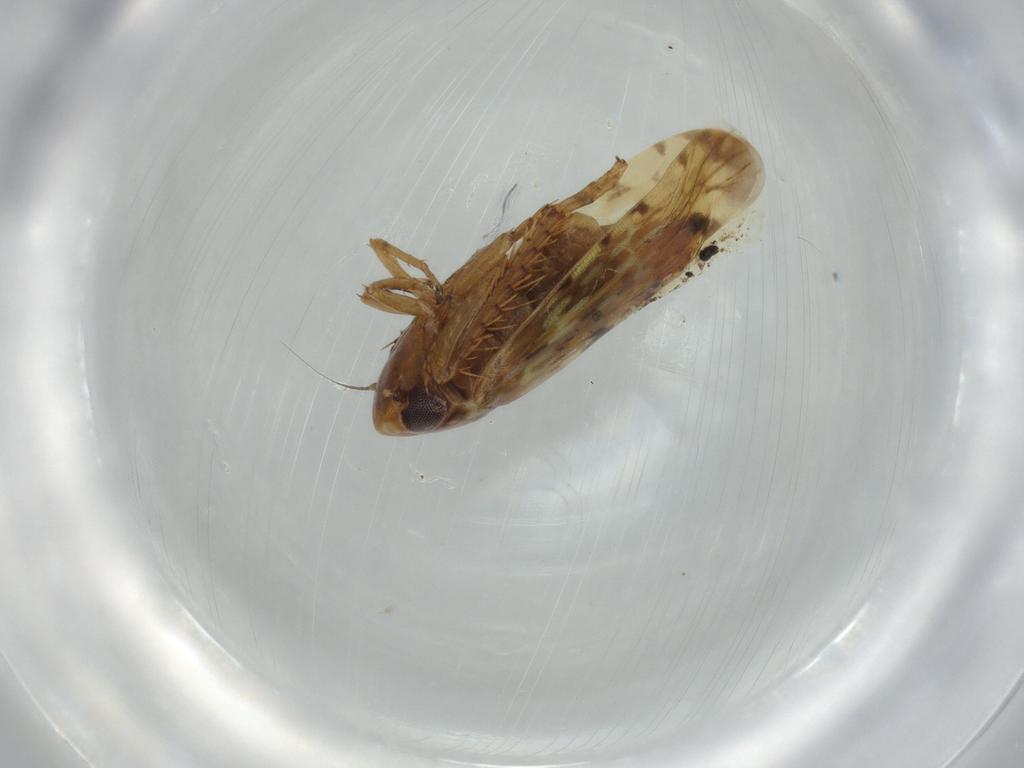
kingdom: Animalia
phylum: Arthropoda
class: Insecta
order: Hemiptera
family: Cicadellidae
